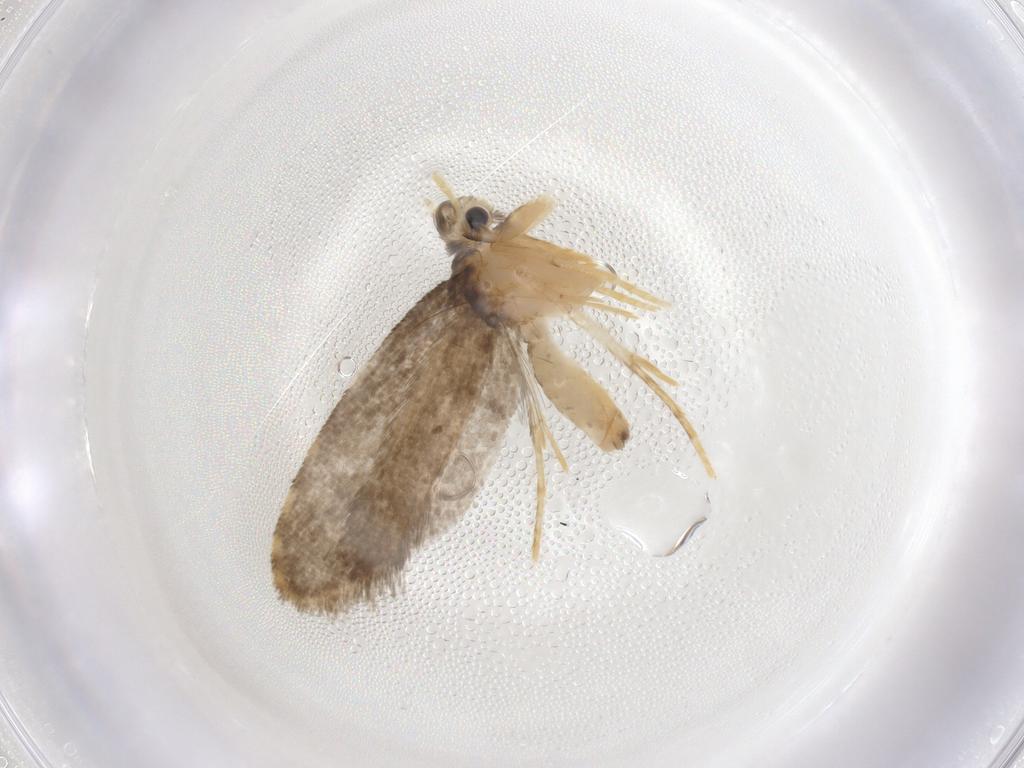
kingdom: Animalia
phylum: Arthropoda
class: Insecta
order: Lepidoptera
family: Psychidae
